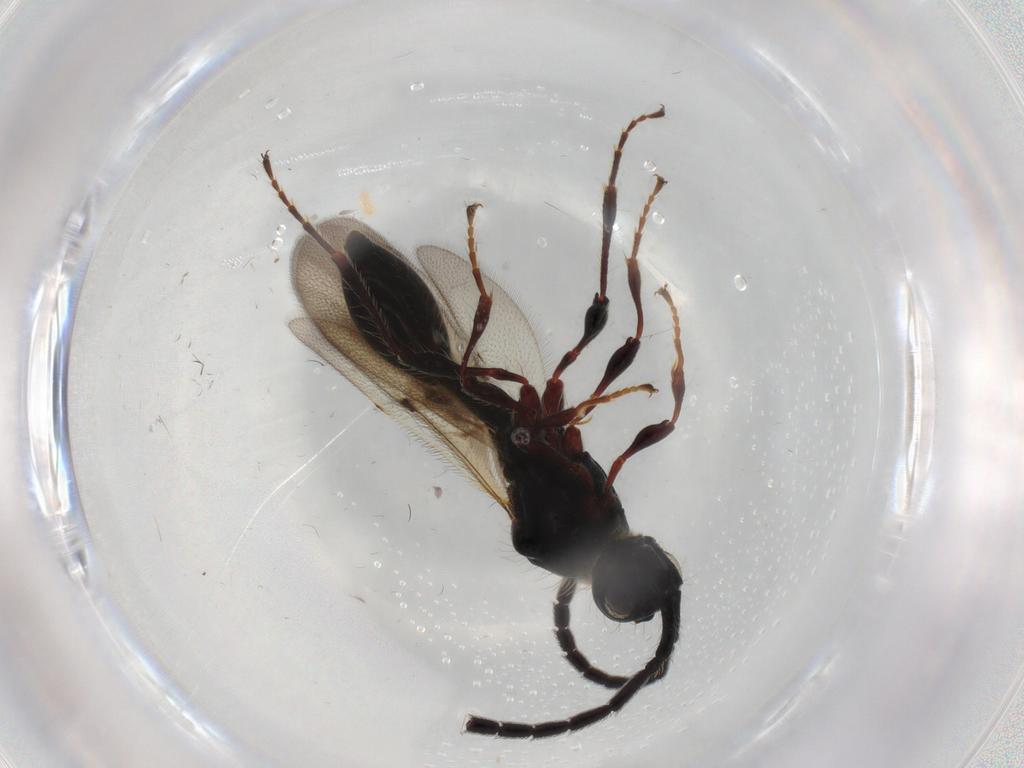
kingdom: Animalia
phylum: Arthropoda
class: Insecta
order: Hymenoptera
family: Diapriidae
